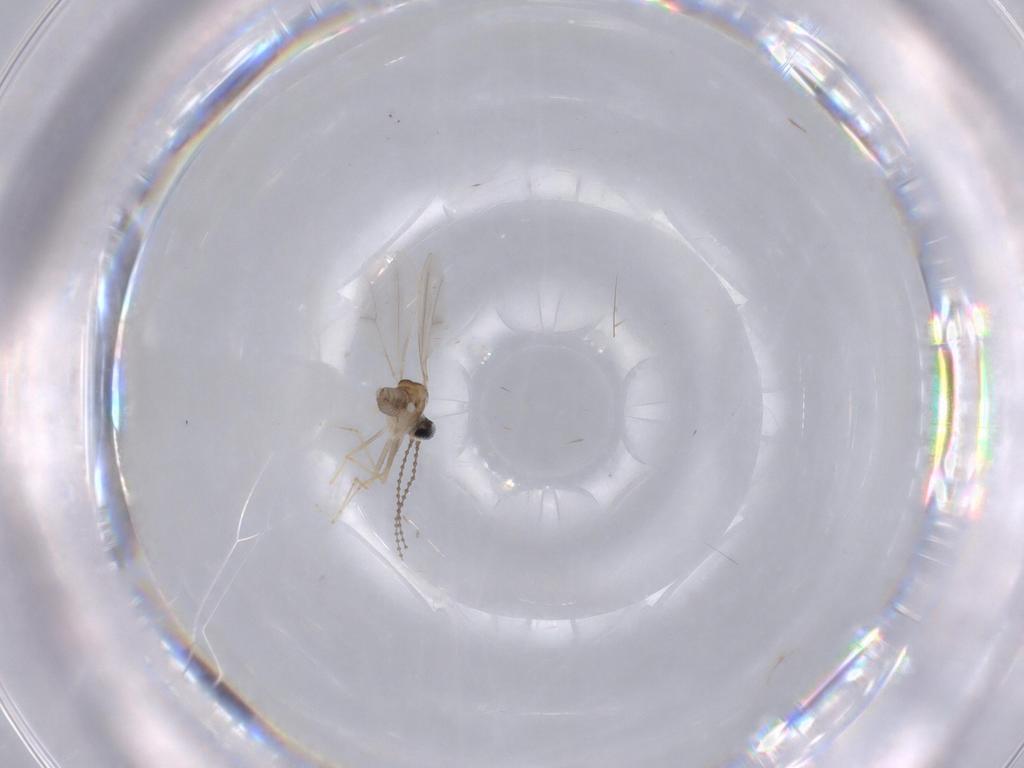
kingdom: Animalia
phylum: Arthropoda
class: Insecta
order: Diptera
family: Cecidomyiidae
